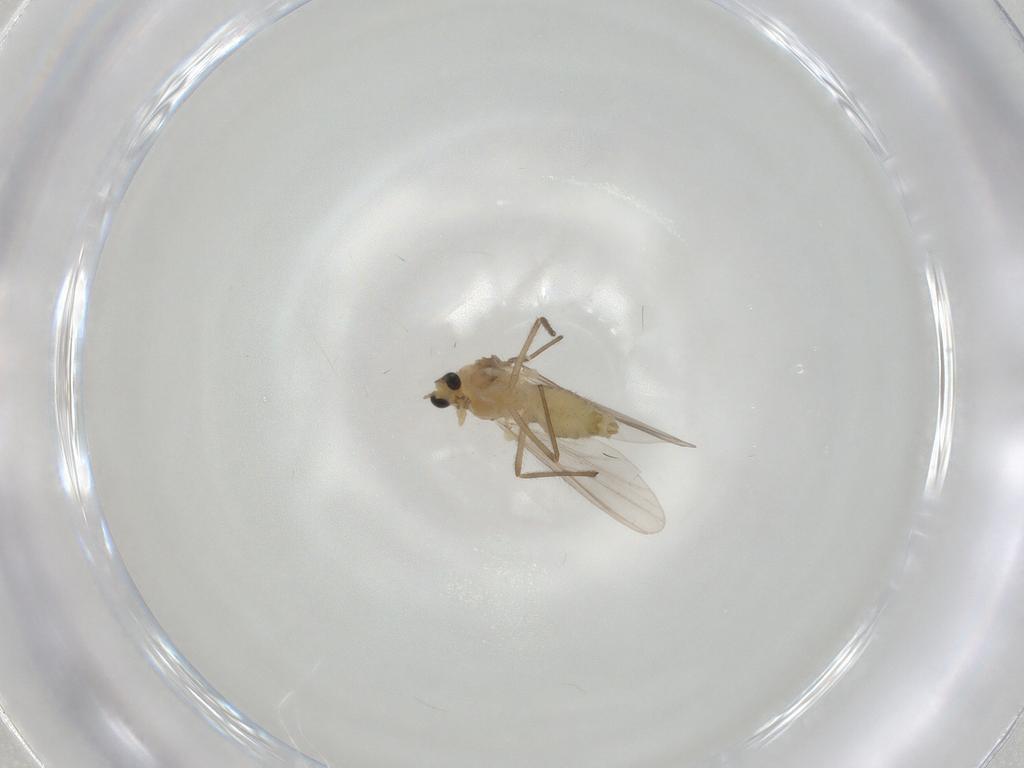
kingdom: Animalia
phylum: Arthropoda
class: Insecta
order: Diptera
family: Chironomidae
